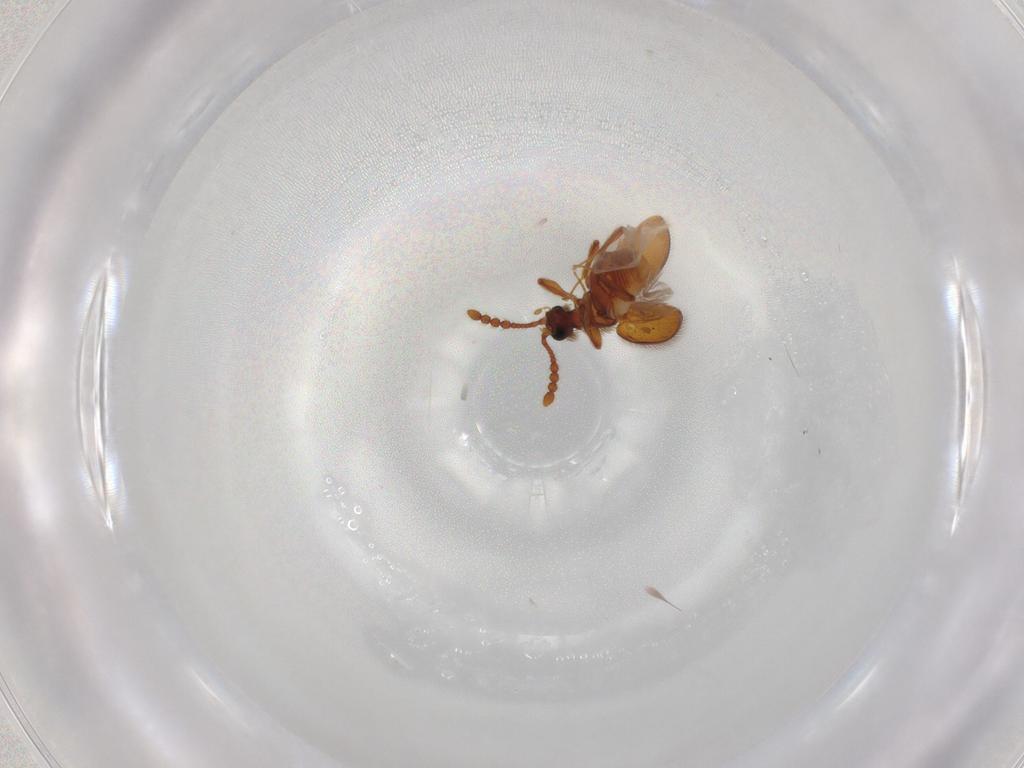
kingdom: Animalia
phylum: Arthropoda
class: Insecta
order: Coleoptera
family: Staphylinidae
